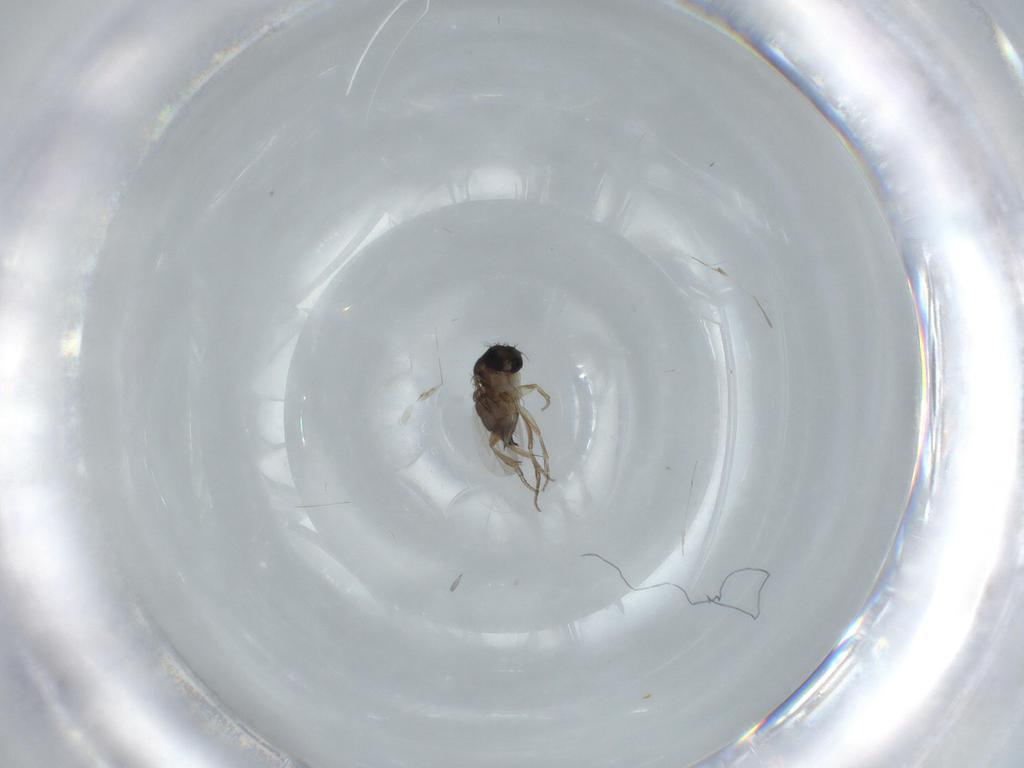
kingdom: Animalia
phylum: Arthropoda
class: Insecta
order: Diptera
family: Phoridae
